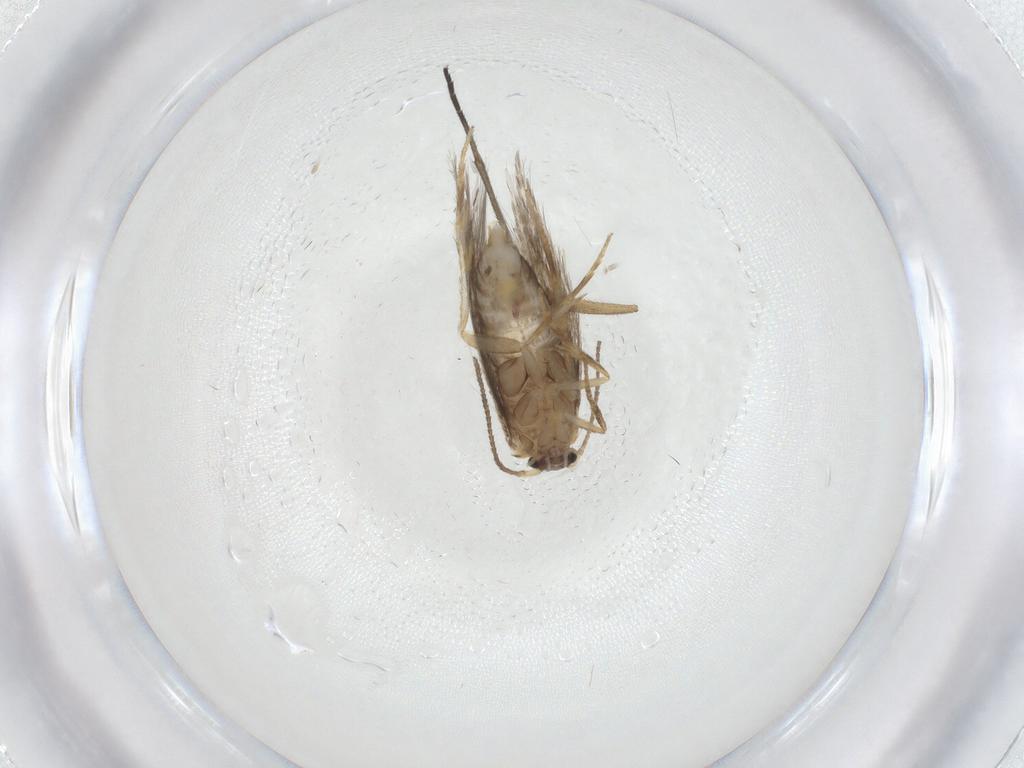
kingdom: Animalia
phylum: Arthropoda
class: Insecta
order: Lepidoptera
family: Nepticulidae
